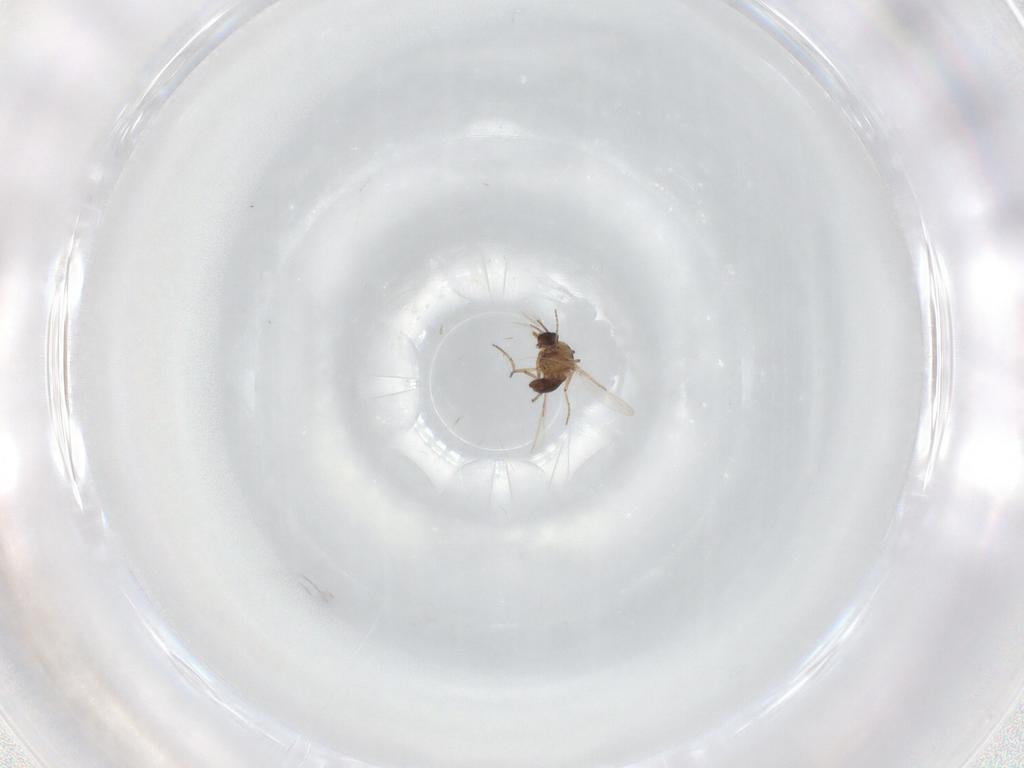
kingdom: Animalia
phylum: Arthropoda
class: Insecta
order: Diptera
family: Ceratopogonidae
